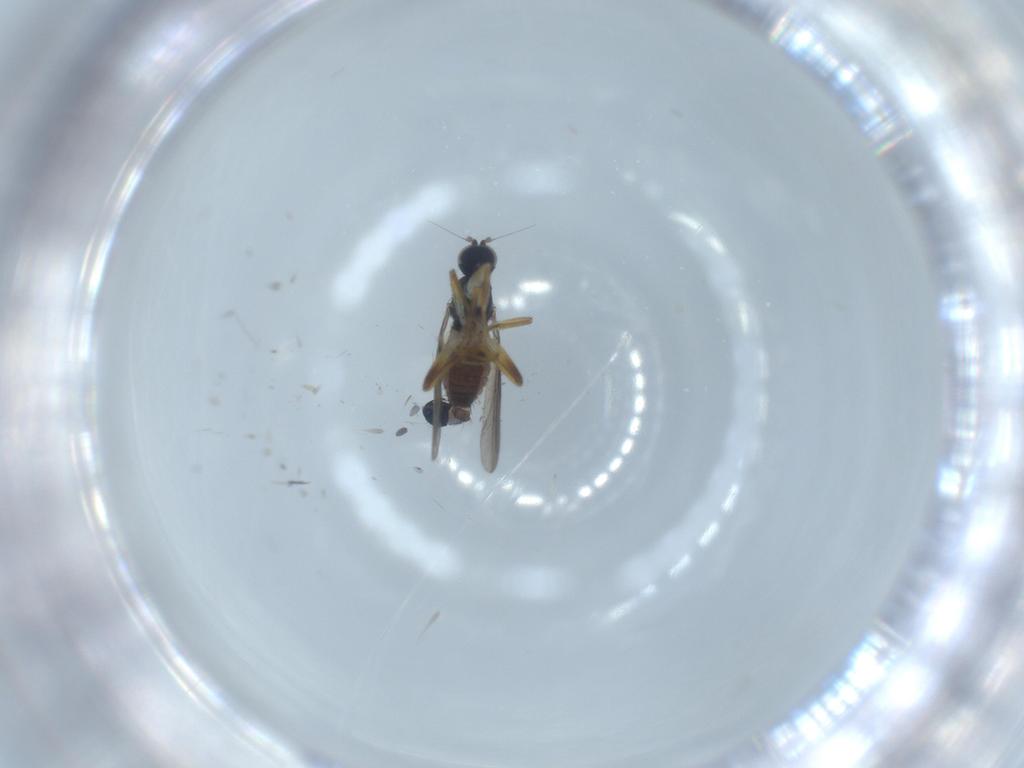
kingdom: Animalia
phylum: Arthropoda
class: Insecta
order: Diptera
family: Hybotidae
